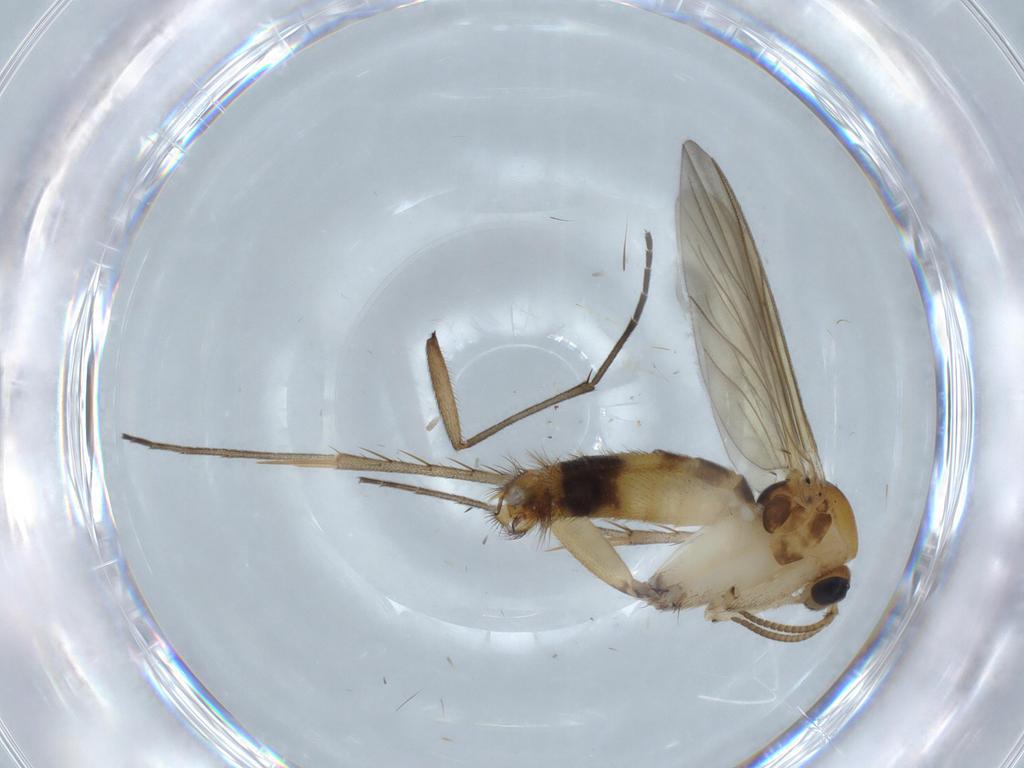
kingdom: Animalia
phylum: Arthropoda
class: Insecta
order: Diptera
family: Sciaridae
